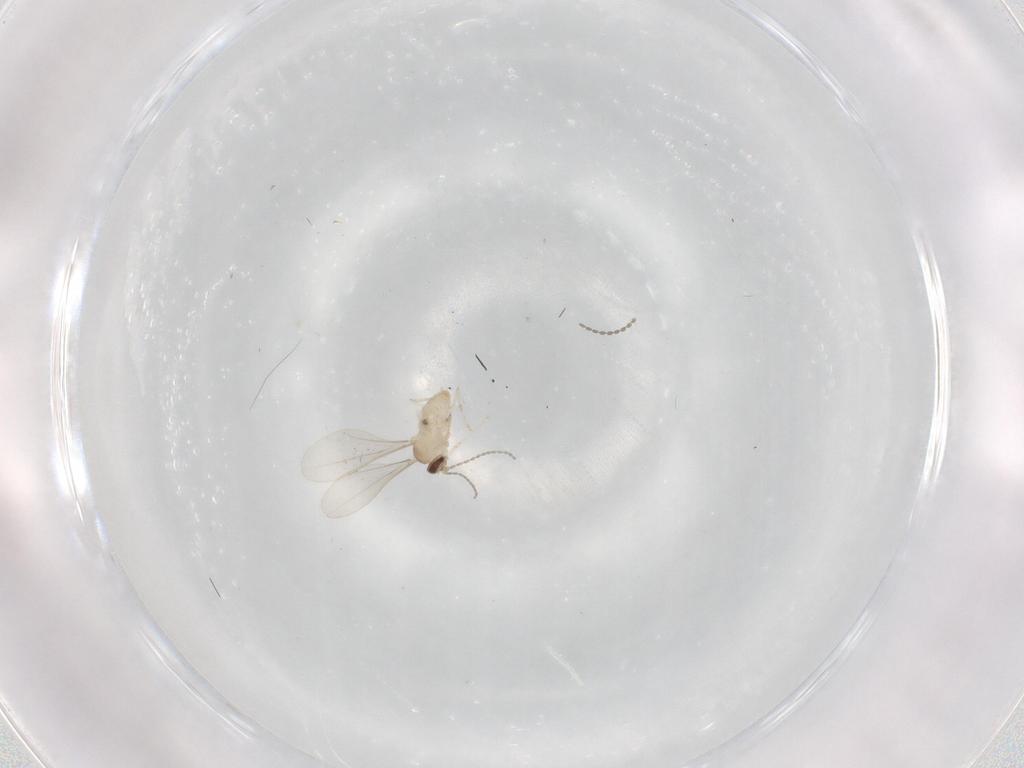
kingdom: Animalia
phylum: Arthropoda
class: Insecta
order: Diptera
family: Cecidomyiidae
